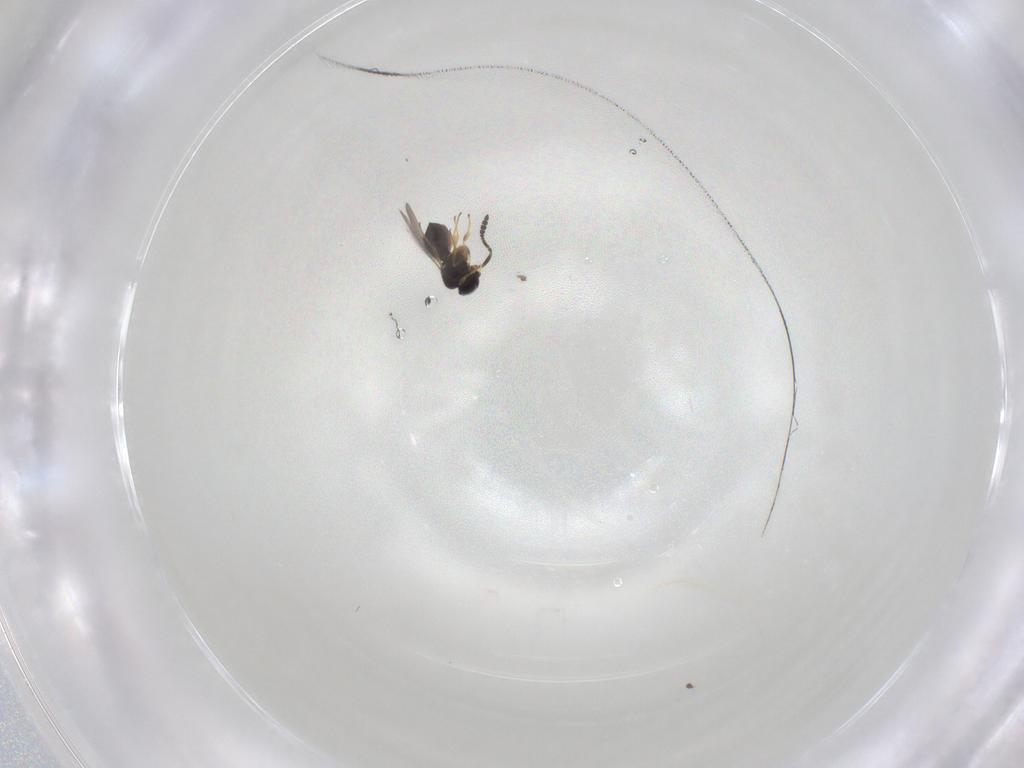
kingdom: Animalia
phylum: Arthropoda
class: Insecta
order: Hymenoptera
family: Scelionidae
